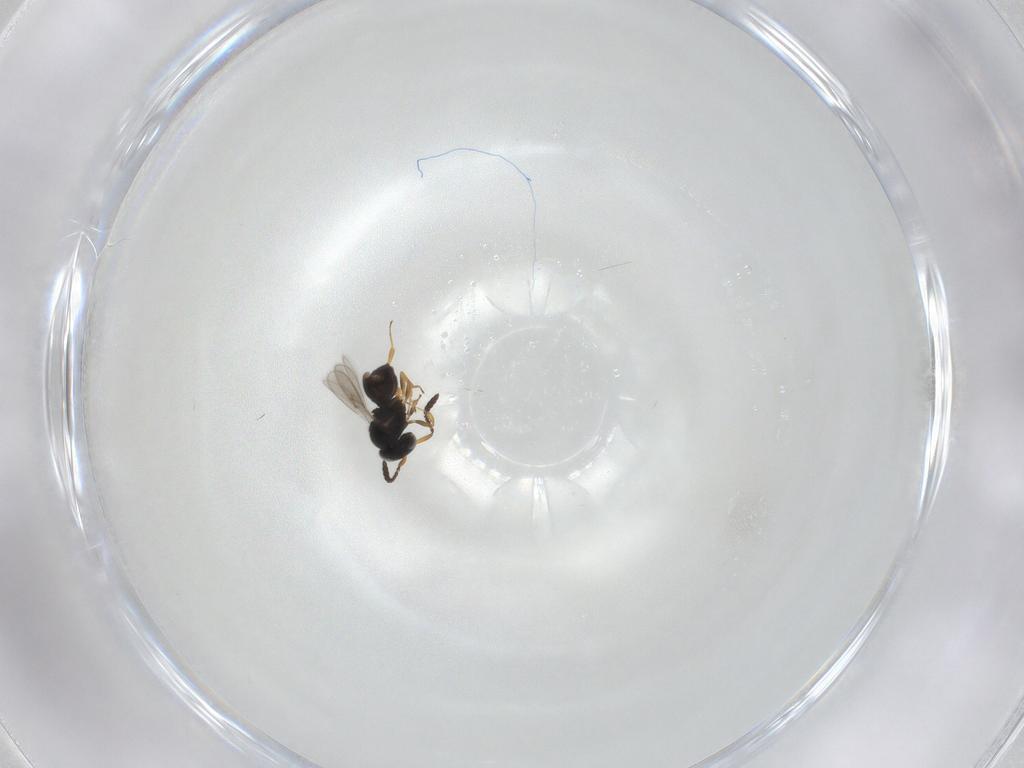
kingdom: Animalia
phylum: Arthropoda
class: Insecta
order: Hymenoptera
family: Scelionidae
